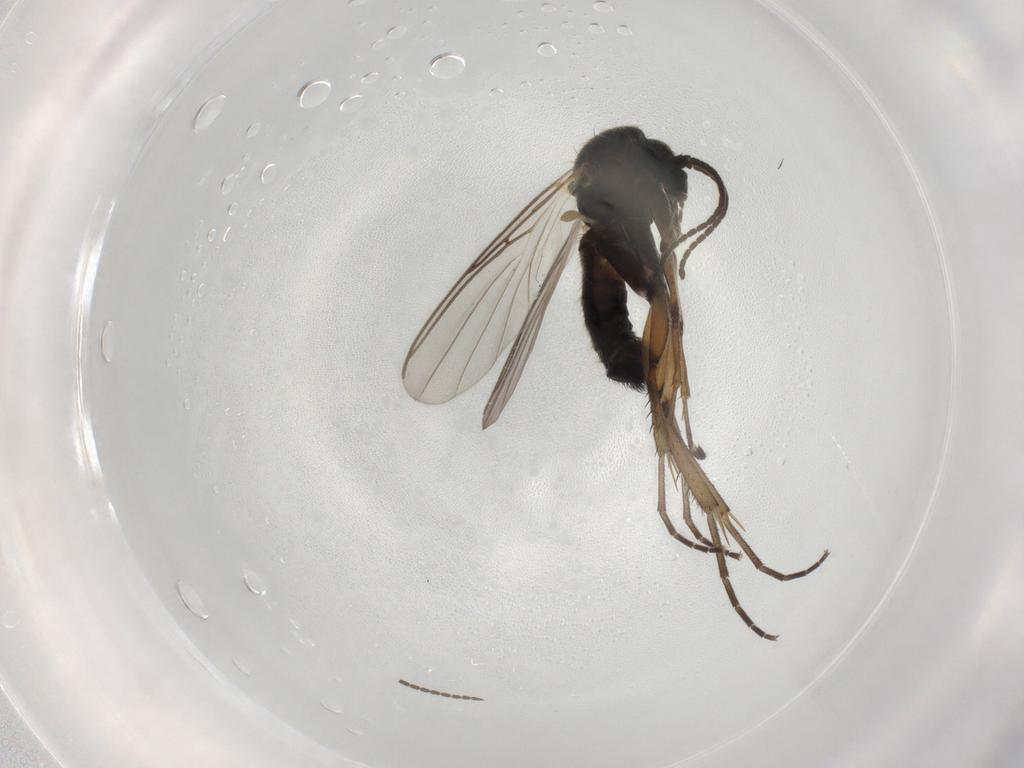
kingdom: Animalia
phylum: Arthropoda
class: Insecta
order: Diptera
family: Mycetophilidae
